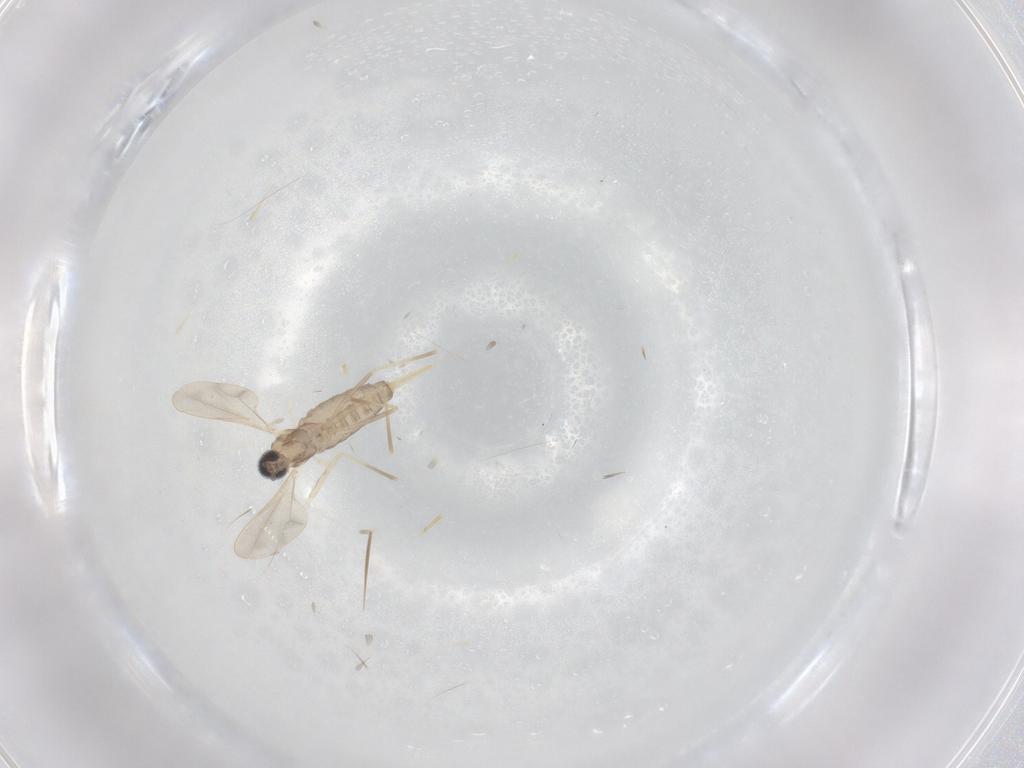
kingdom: Animalia
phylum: Arthropoda
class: Insecta
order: Diptera
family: Cecidomyiidae
